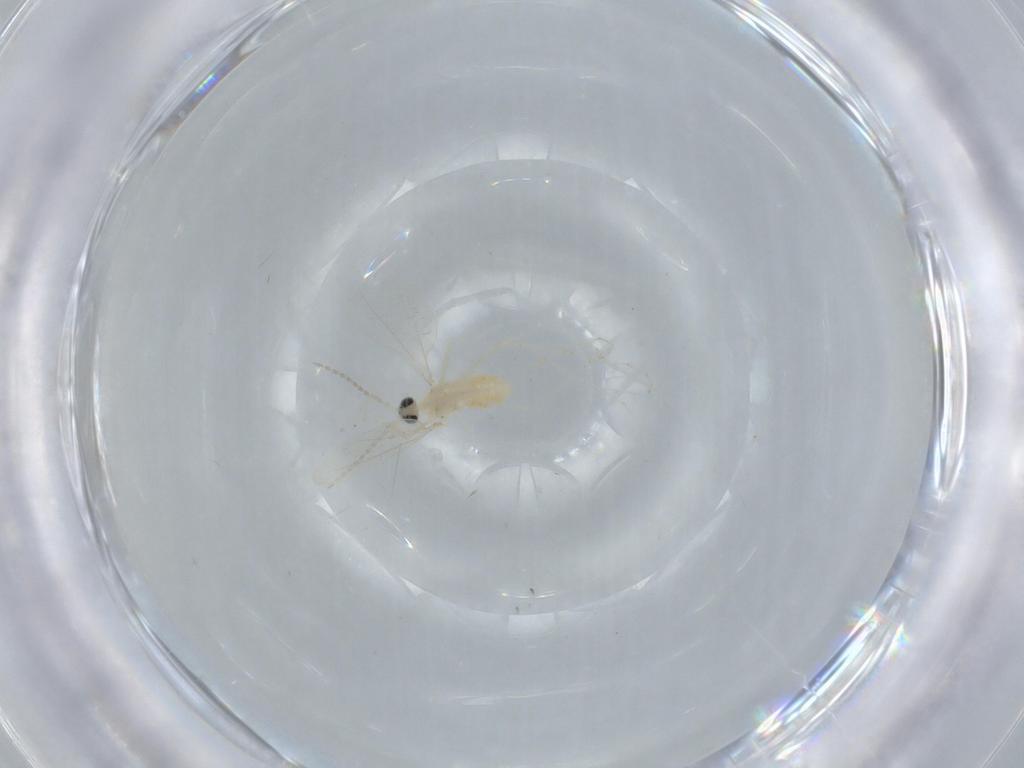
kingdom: Animalia
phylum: Arthropoda
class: Insecta
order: Diptera
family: Cecidomyiidae
